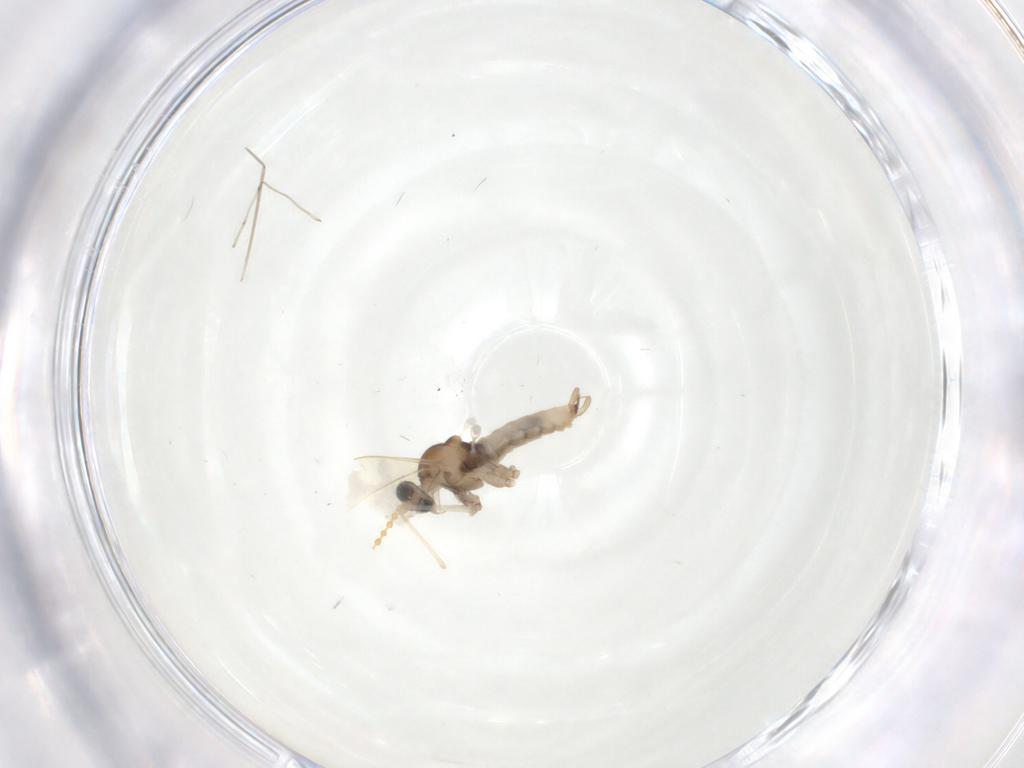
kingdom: Animalia
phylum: Arthropoda
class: Insecta
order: Diptera
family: Cecidomyiidae
